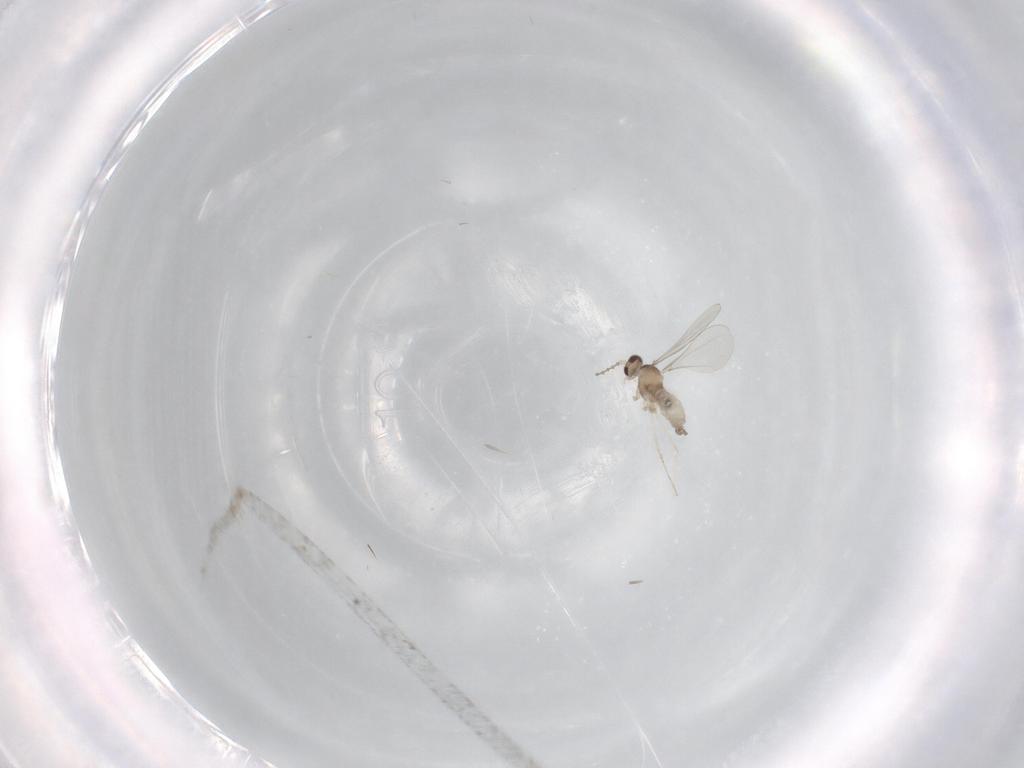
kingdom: Animalia
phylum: Arthropoda
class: Insecta
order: Diptera
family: Cecidomyiidae
